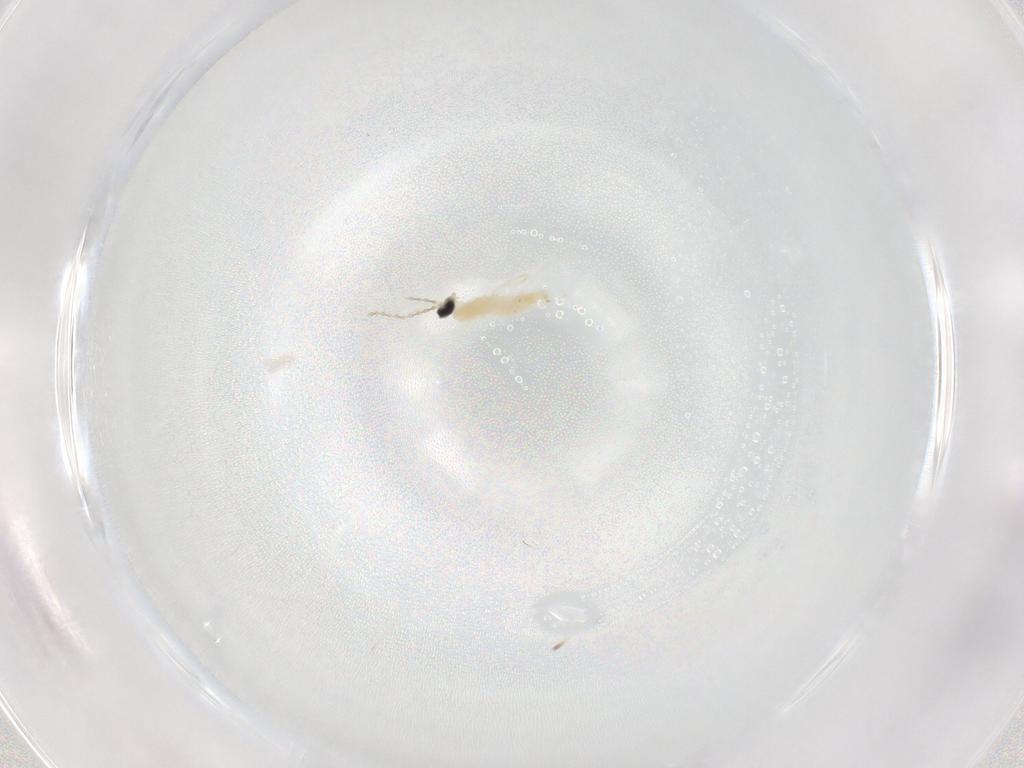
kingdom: Animalia
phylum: Arthropoda
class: Insecta
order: Diptera
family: Cecidomyiidae
